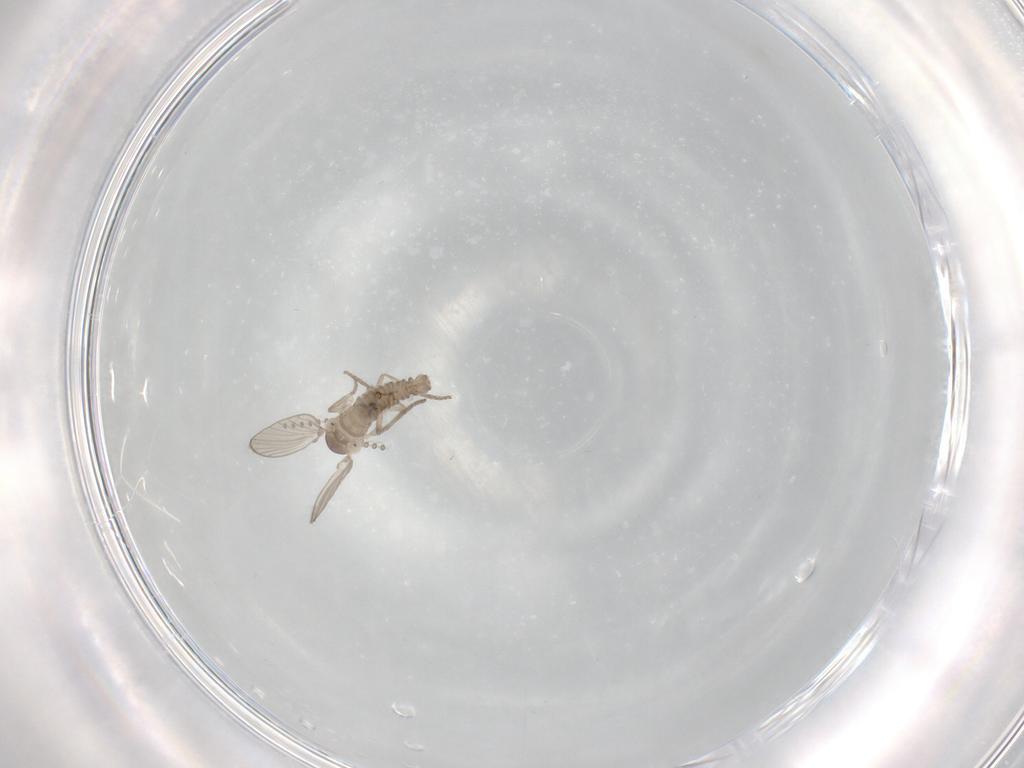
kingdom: Animalia
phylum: Arthropoda
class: Insecta
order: Diptera
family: Psychodidae
